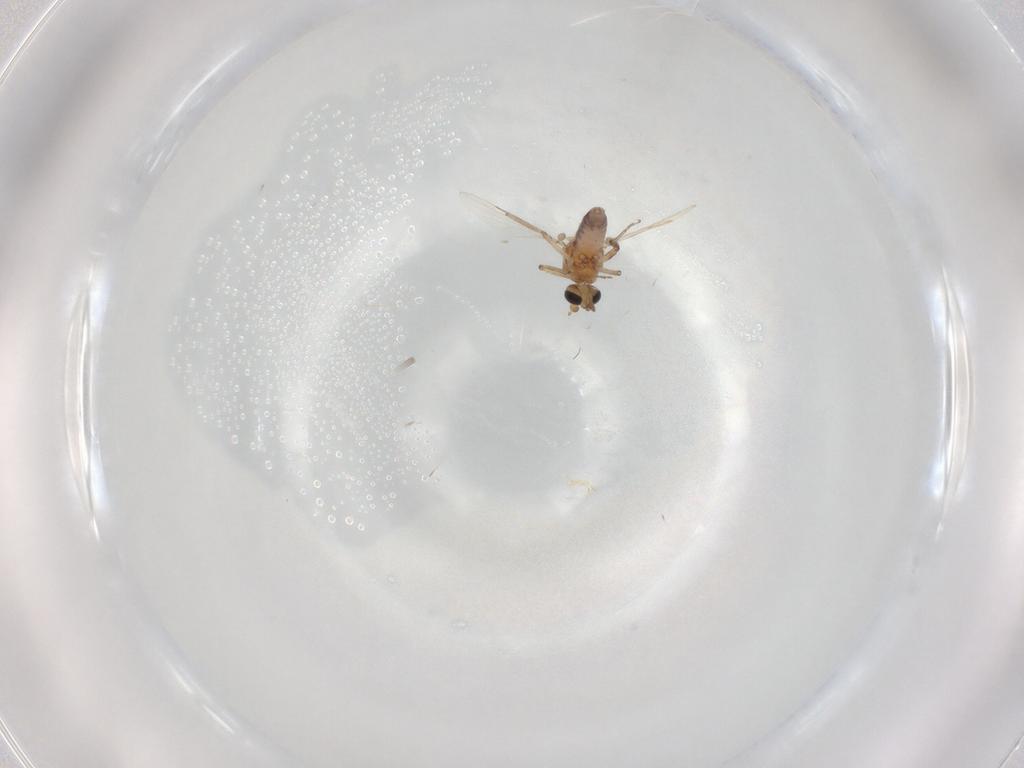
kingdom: Animalia
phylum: Arthropoda
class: Insecta
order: Diptera
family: Ceratopogonidae
